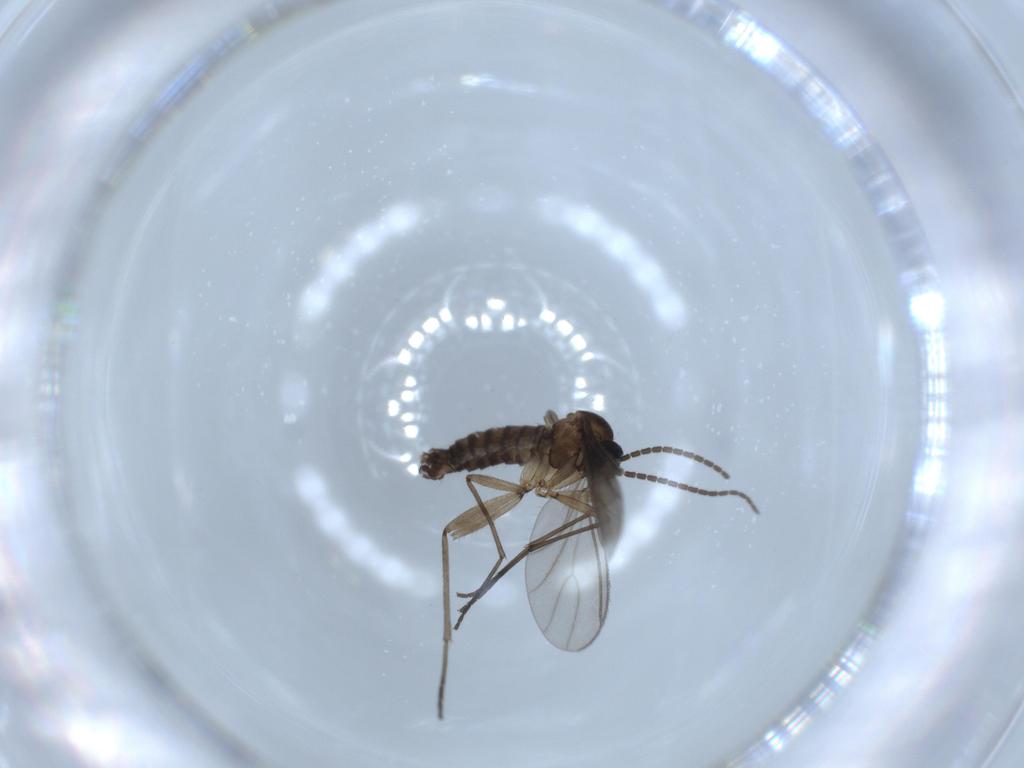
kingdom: Animalia
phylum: Arthropoda
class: Insecta
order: Diptera
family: Sciaridae
